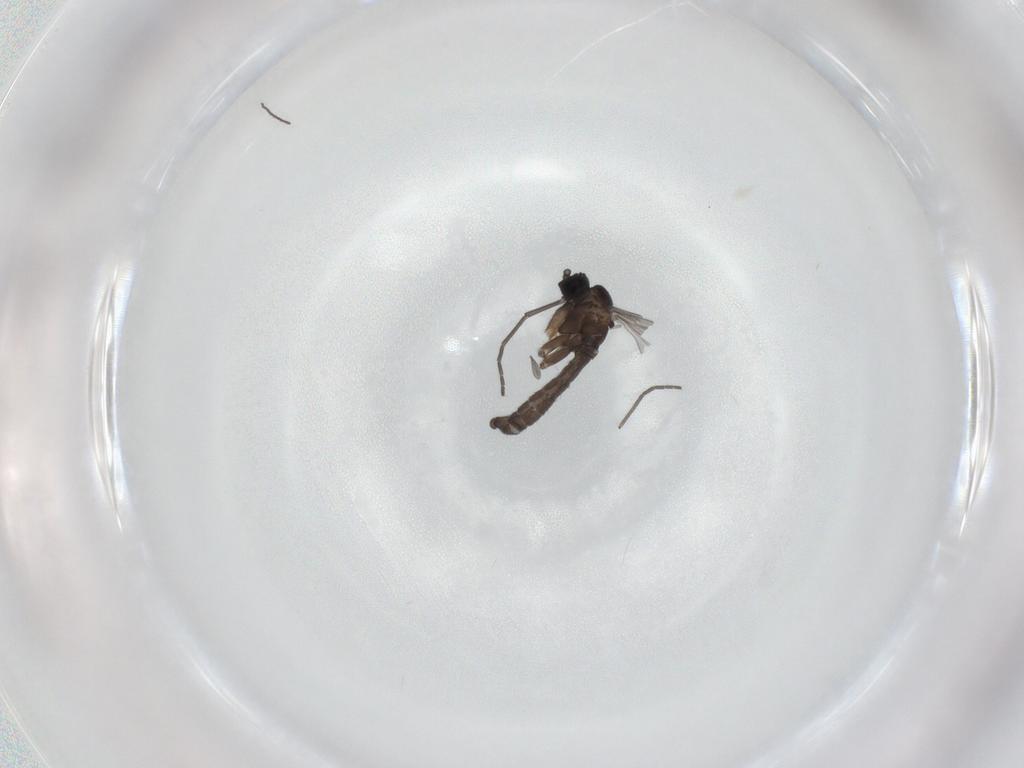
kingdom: Animalia
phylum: Arthropoda
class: Insecta
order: Diptera
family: Sciaridae
